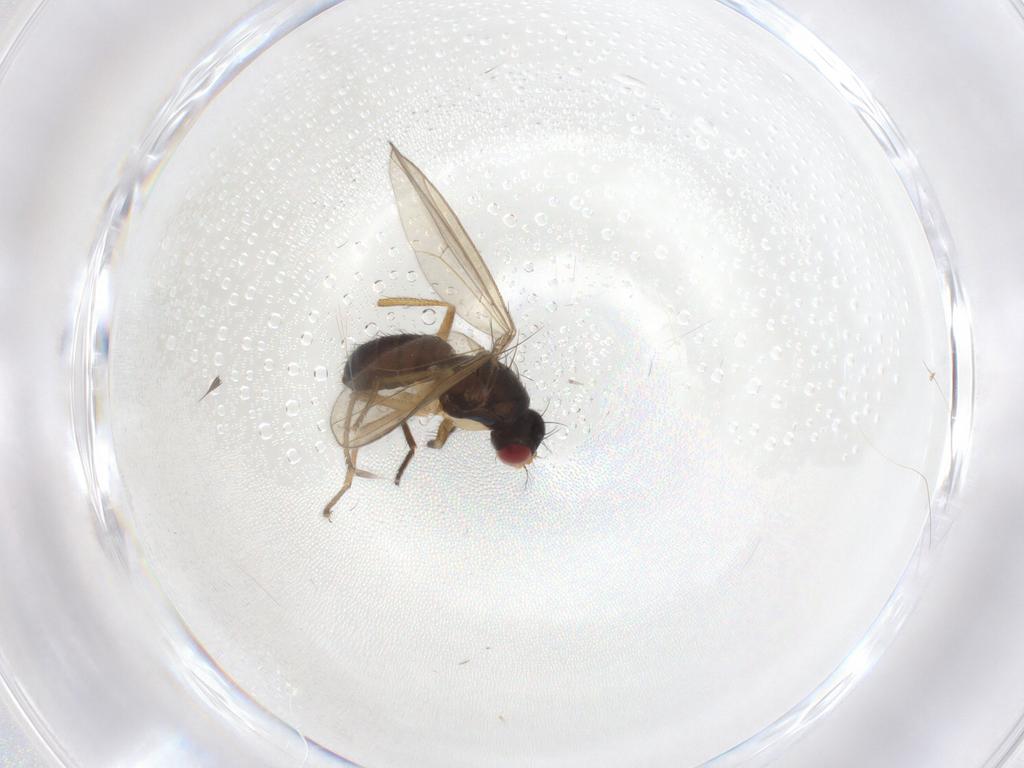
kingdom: Animalia
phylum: Arthropoda
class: Insecta
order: Diptera
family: Drosophilidae
